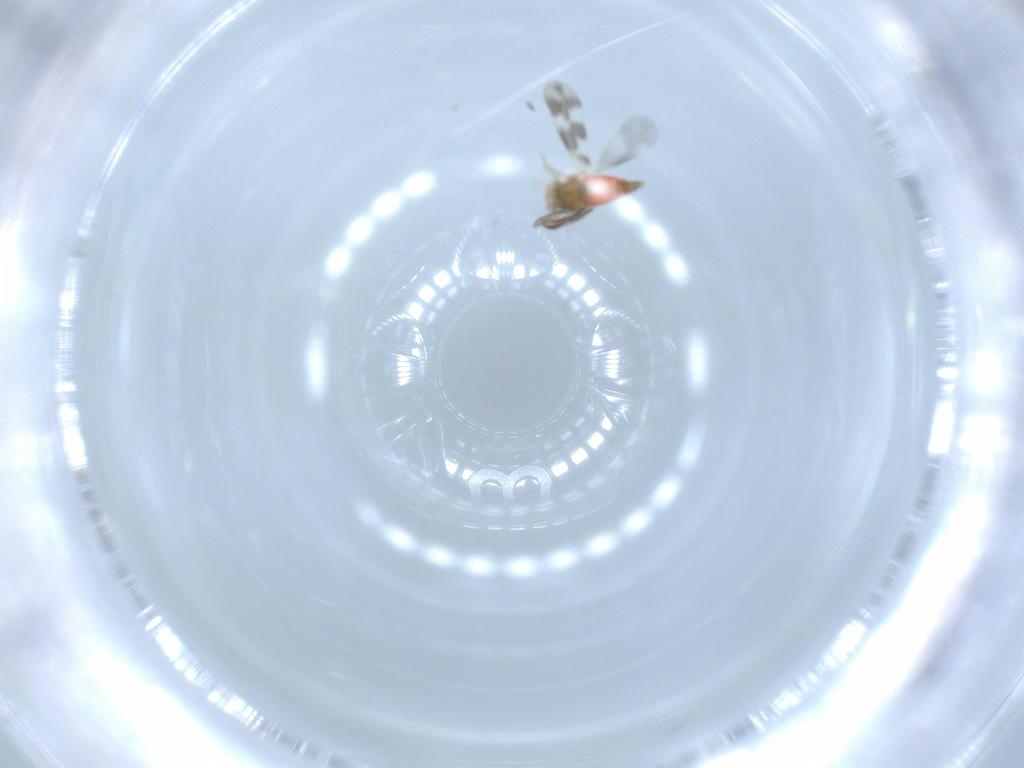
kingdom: Animalia
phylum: Arthropoda
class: Insecta
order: Hemiptera
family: Aleyrodidae
